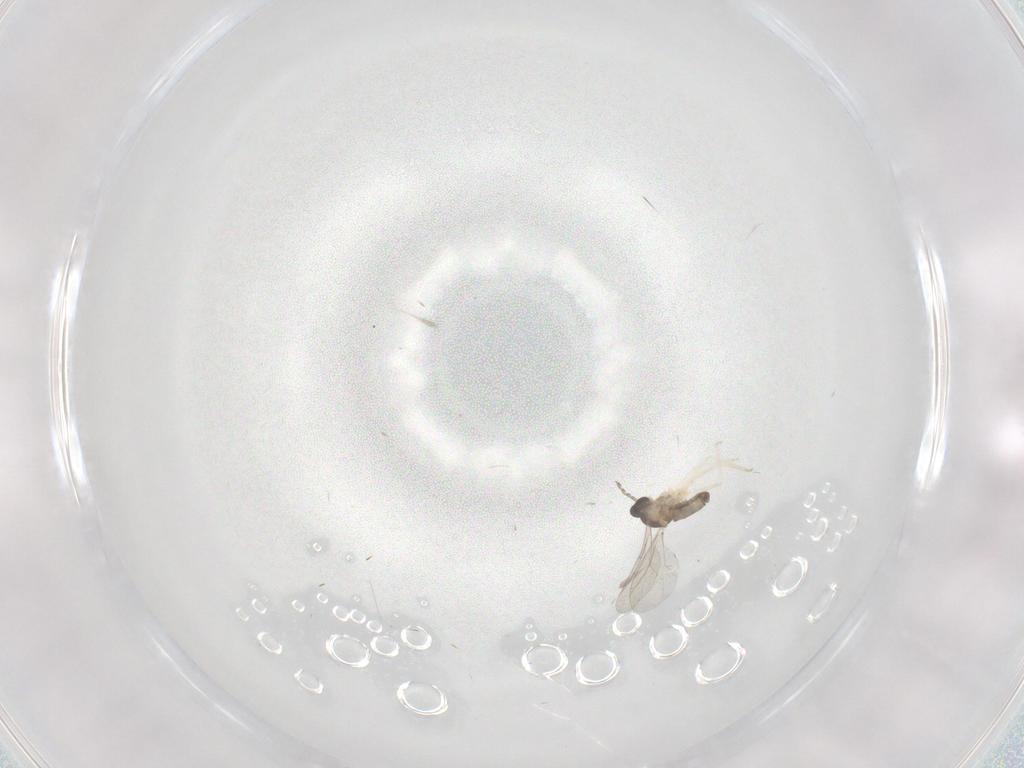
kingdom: Animalia
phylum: Arthropoda
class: Insecta
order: Diptera
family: Cecidomyiidae
